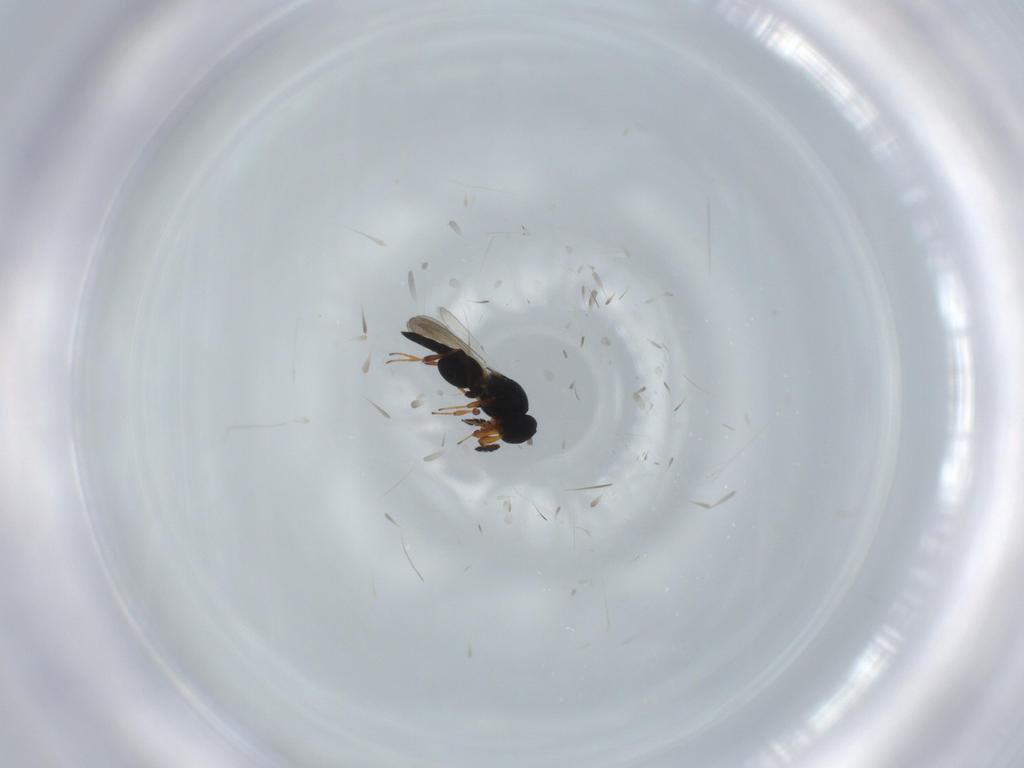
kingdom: Animalia
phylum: Arthropoda
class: Insecta
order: Hymenoptera
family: Platygastridae
